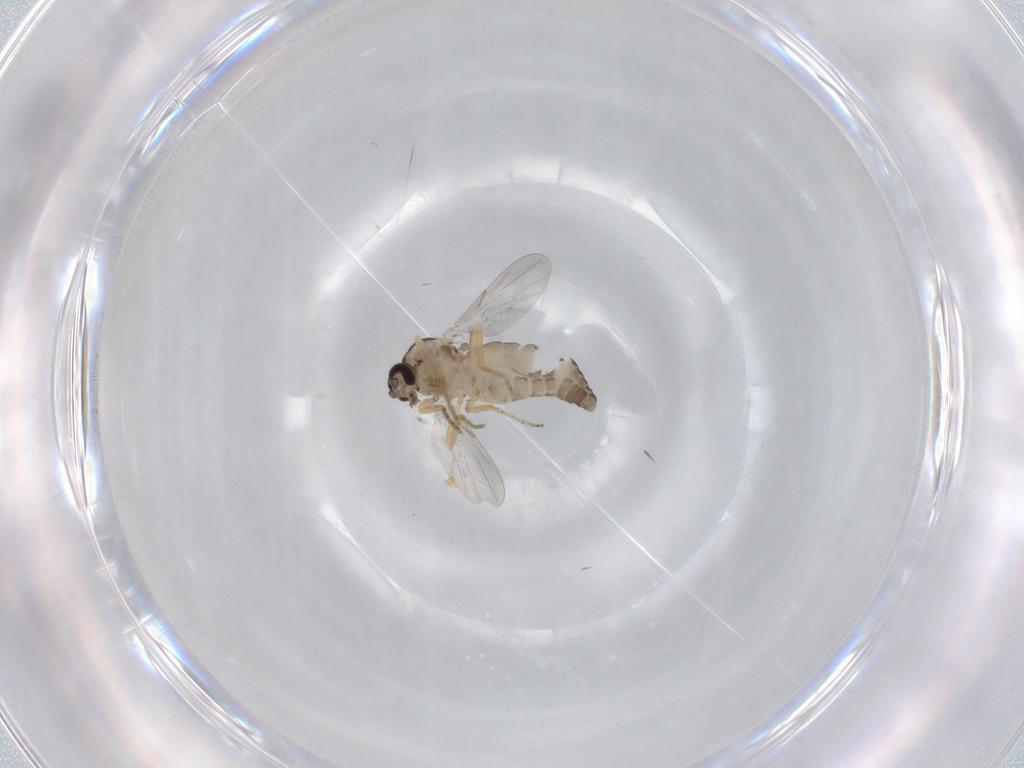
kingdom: Animalia
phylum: Arthropoda
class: Insecta
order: Diptera
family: Ceratopogonidae
